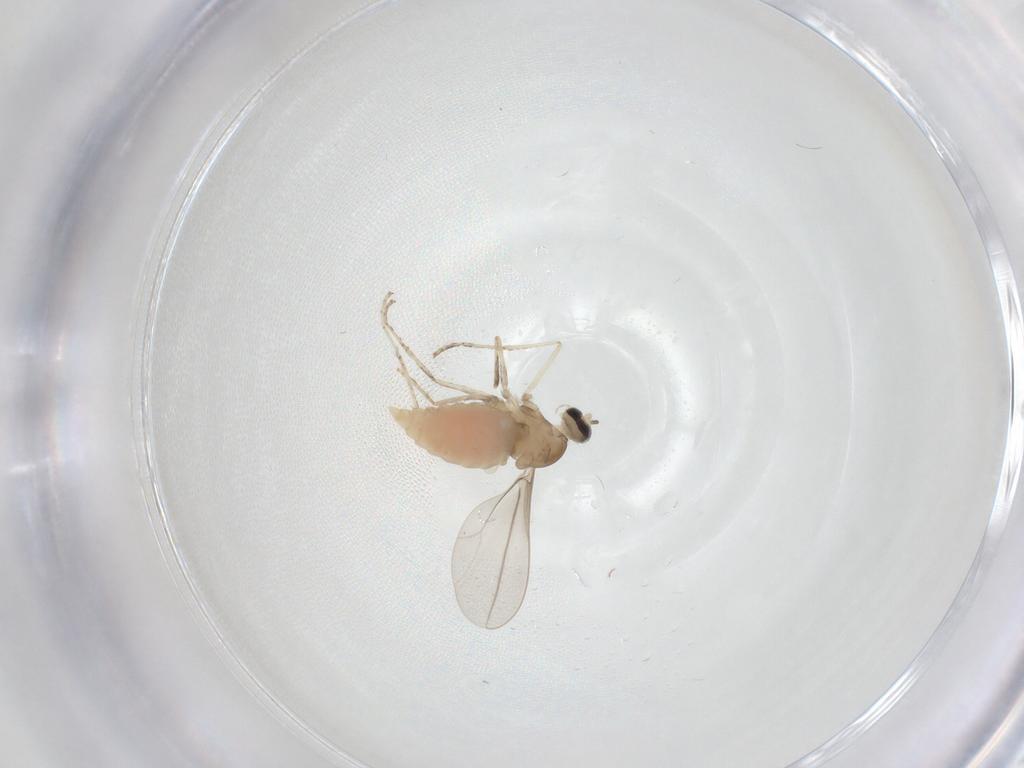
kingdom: Animalia
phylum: Arthropoda
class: Insecta
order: Diptera
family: Cecidomyiidae
